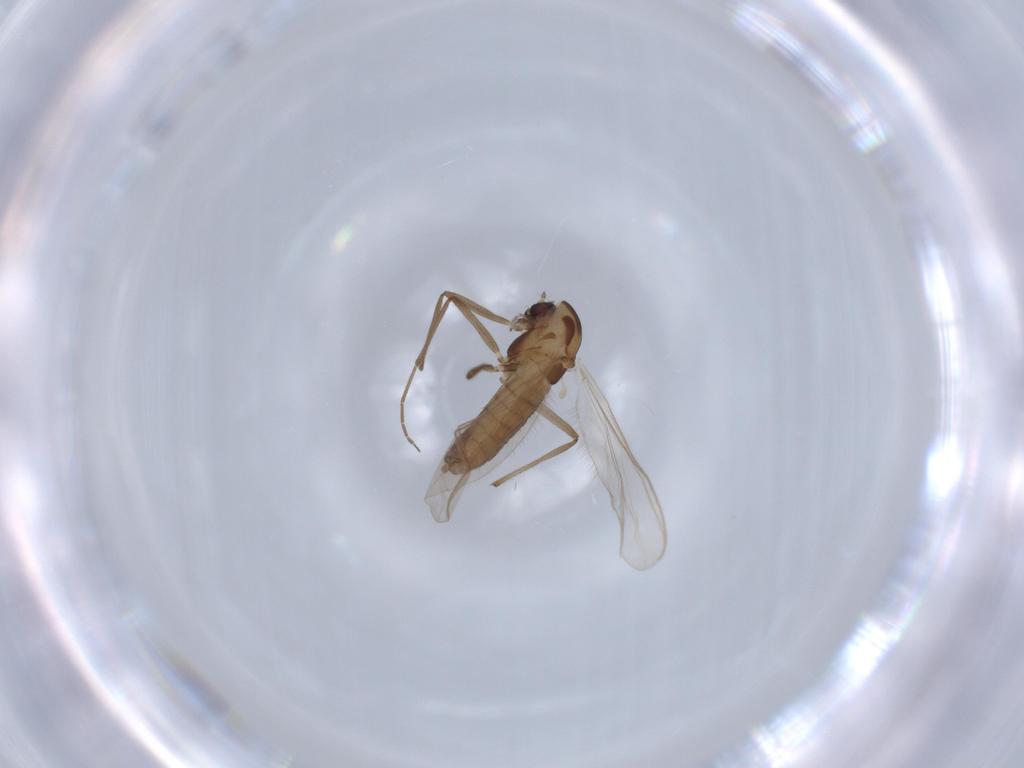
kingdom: Animalia
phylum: Arthropoda
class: Insecta
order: Diptera
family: Chironomidae
